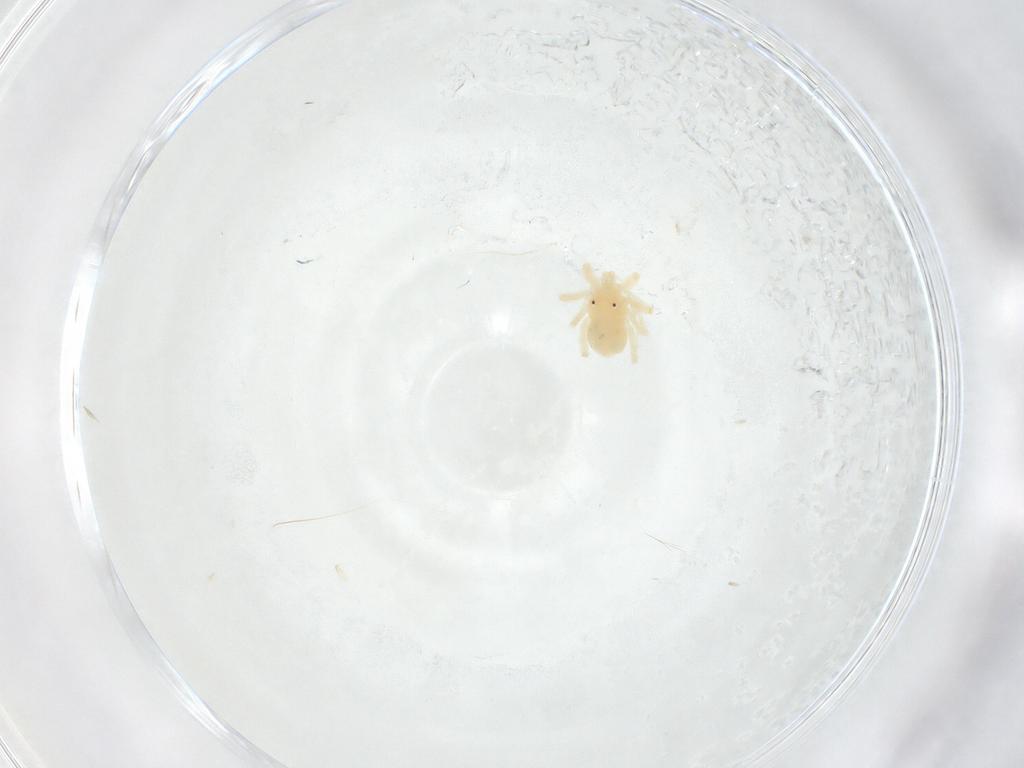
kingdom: Animalia
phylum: Arthropoda
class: Arachnida
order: Trombidiformes
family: Anystidae
